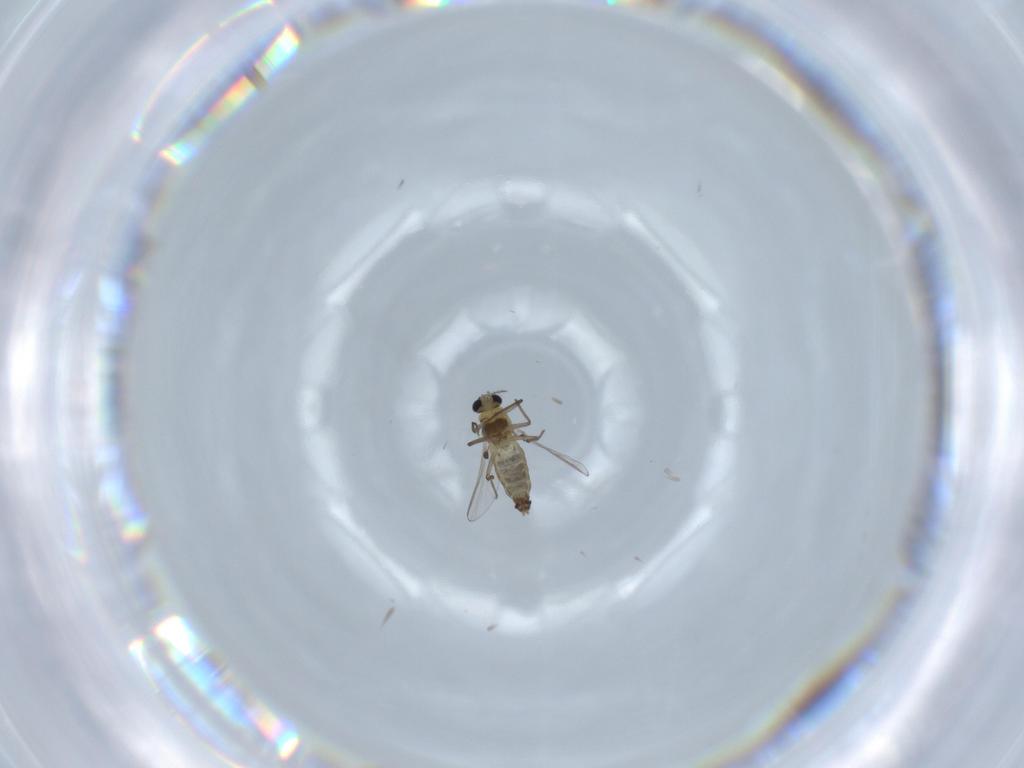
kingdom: Animalia
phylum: Arthropoda
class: Insecta
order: Diptera
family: Chironomidae
